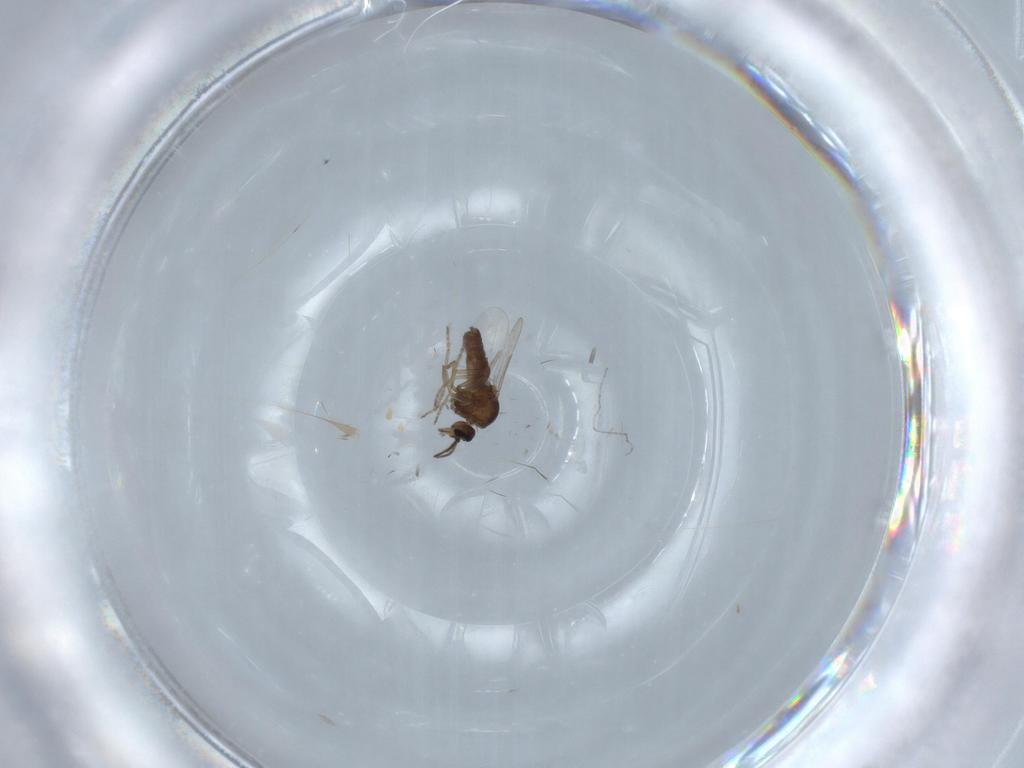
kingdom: Animalia
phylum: Arthropoda
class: Insecta
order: Diptera
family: Ceratopogonidae
